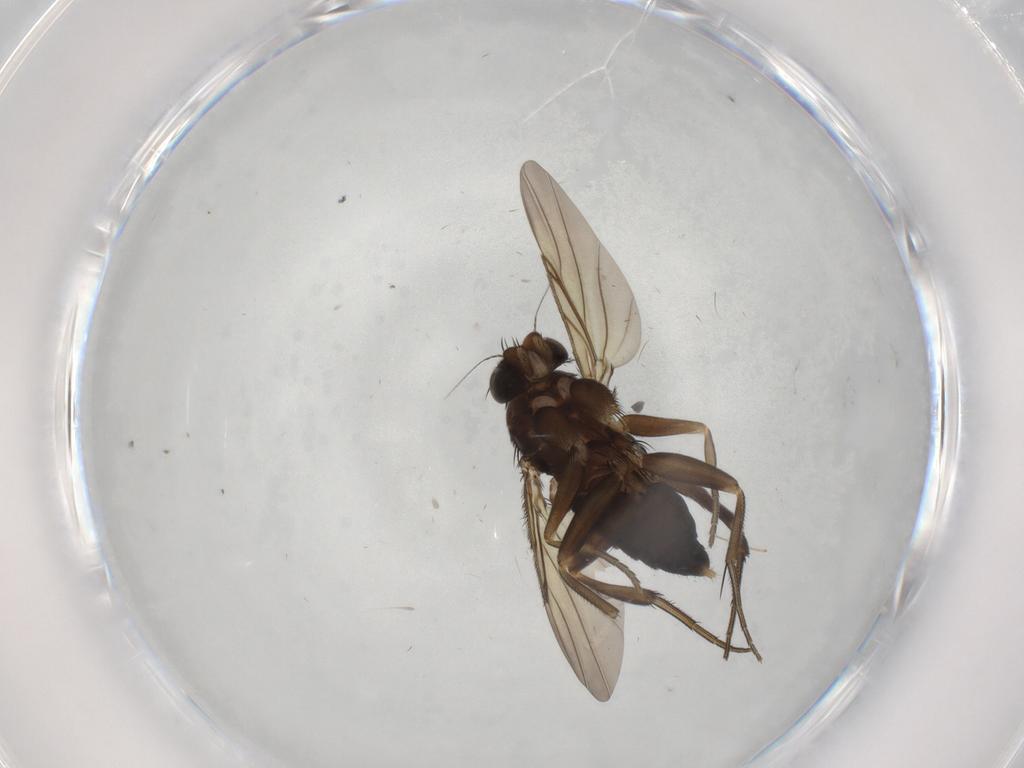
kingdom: Animalia
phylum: Arthropoda
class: Insecta
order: Diptera
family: Phoridae
